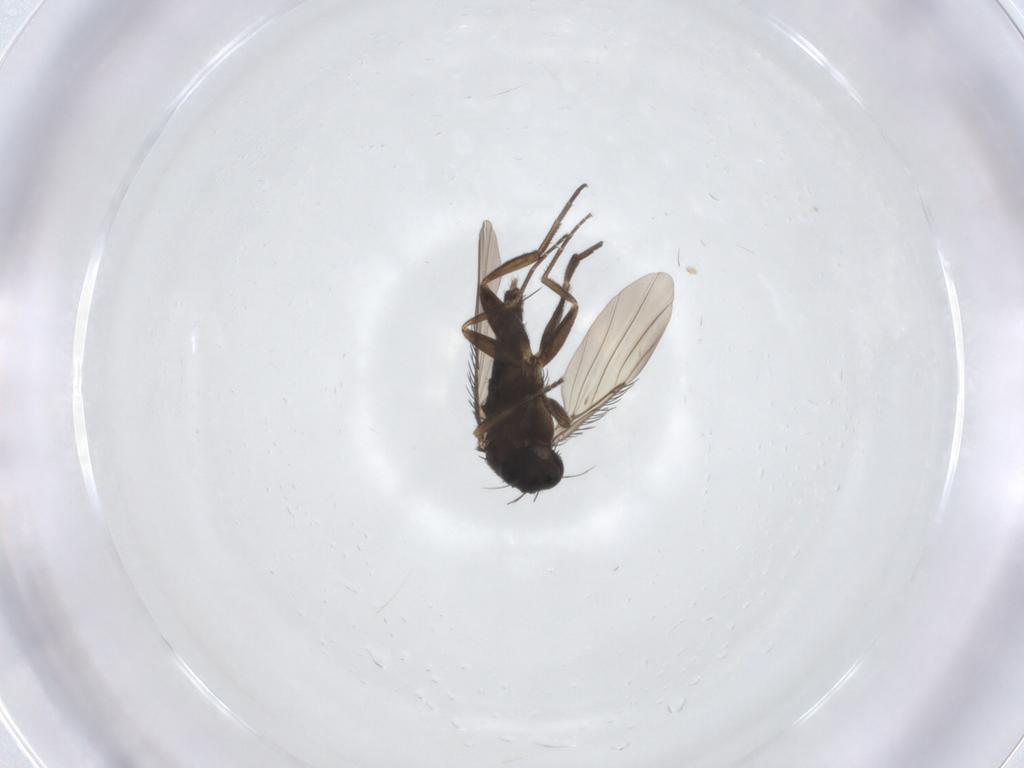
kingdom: Animalia
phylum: Arthropoda
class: Insecta
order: Diptera
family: Phoridae
